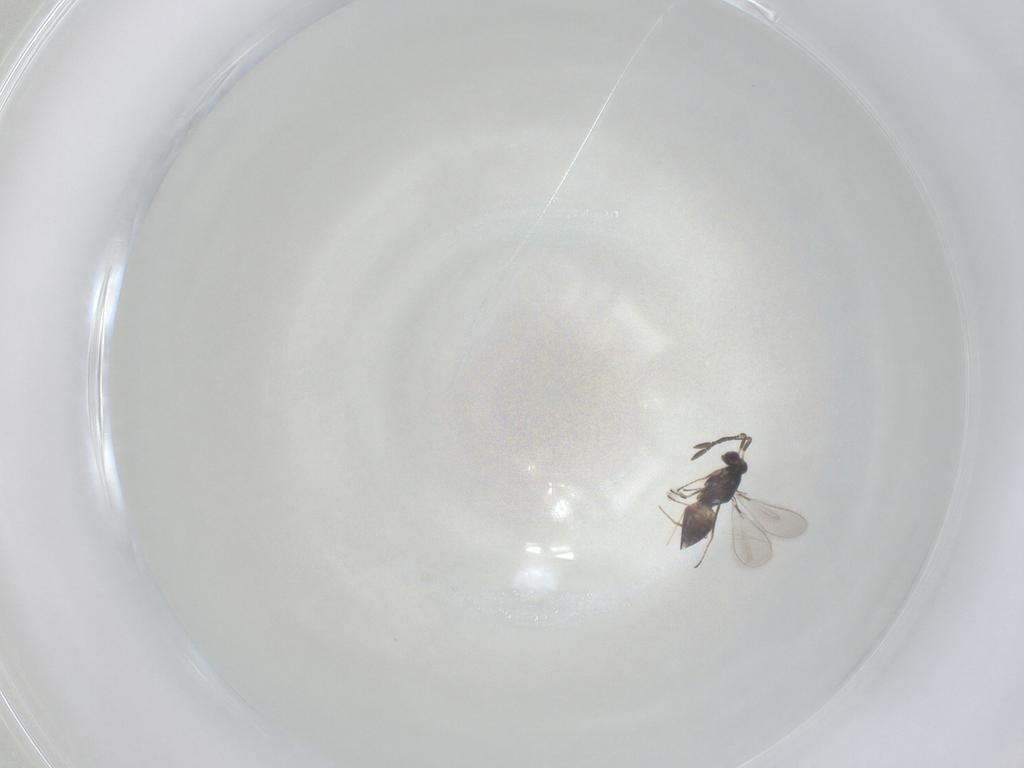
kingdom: Animalia
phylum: Arthropoda
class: Insecta
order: Hymenoptera
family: Mymaridae
